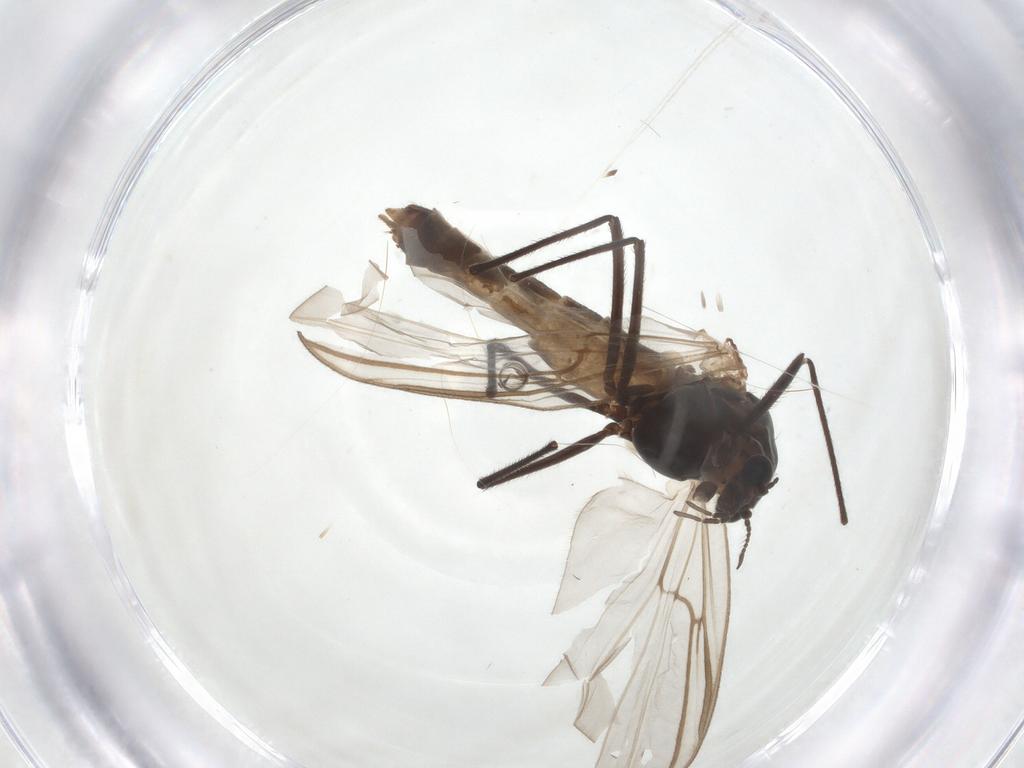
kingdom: Animalia
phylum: Arthropoda
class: Insecta
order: Diptera
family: Chironomidae
